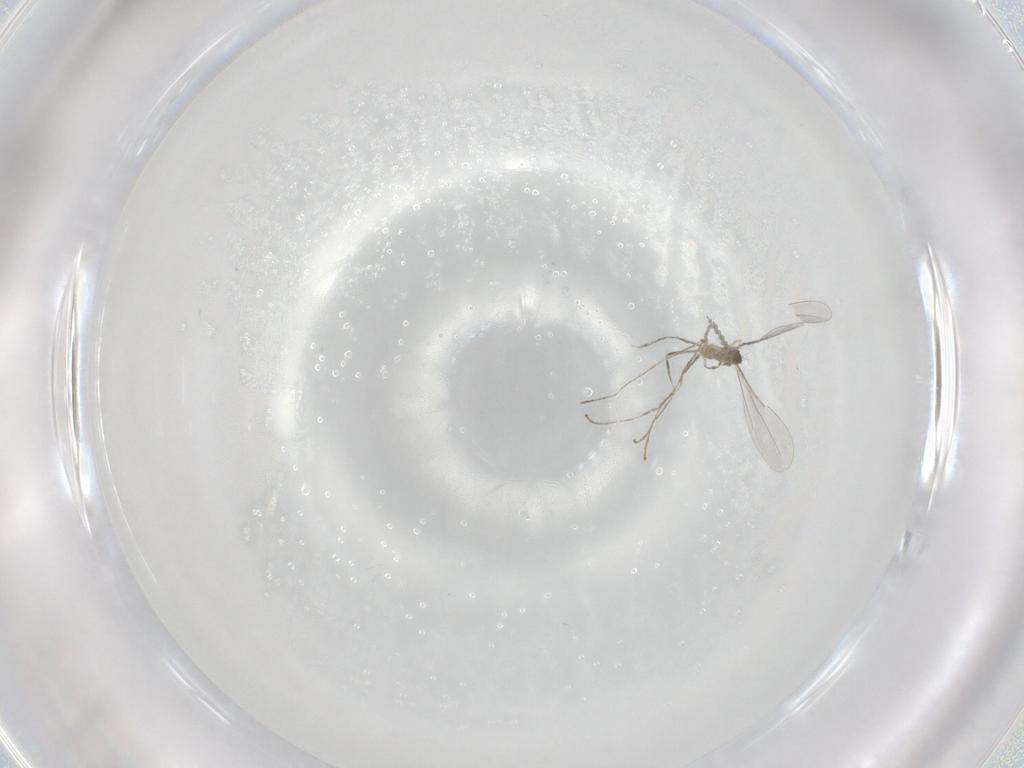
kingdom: Animalia
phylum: Arthropoda
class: Insecta
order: Diptera
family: Cecidomyiidae
